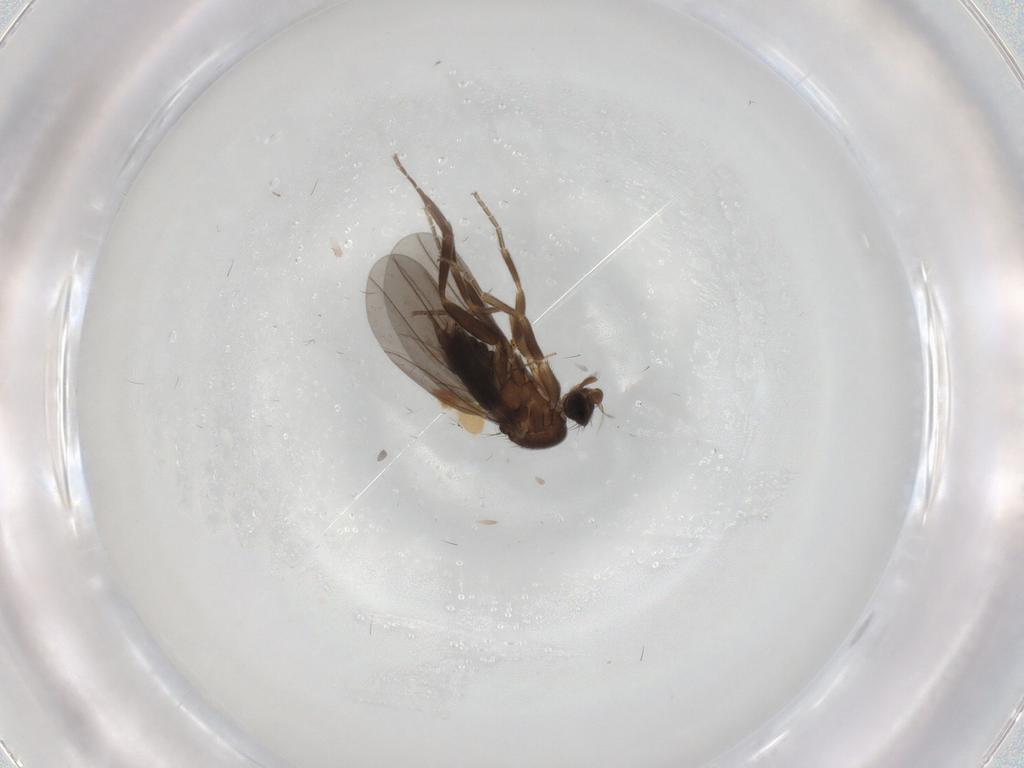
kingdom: Animalia
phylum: Arthropoda
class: Insecta
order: Diptera
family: Phoridae
